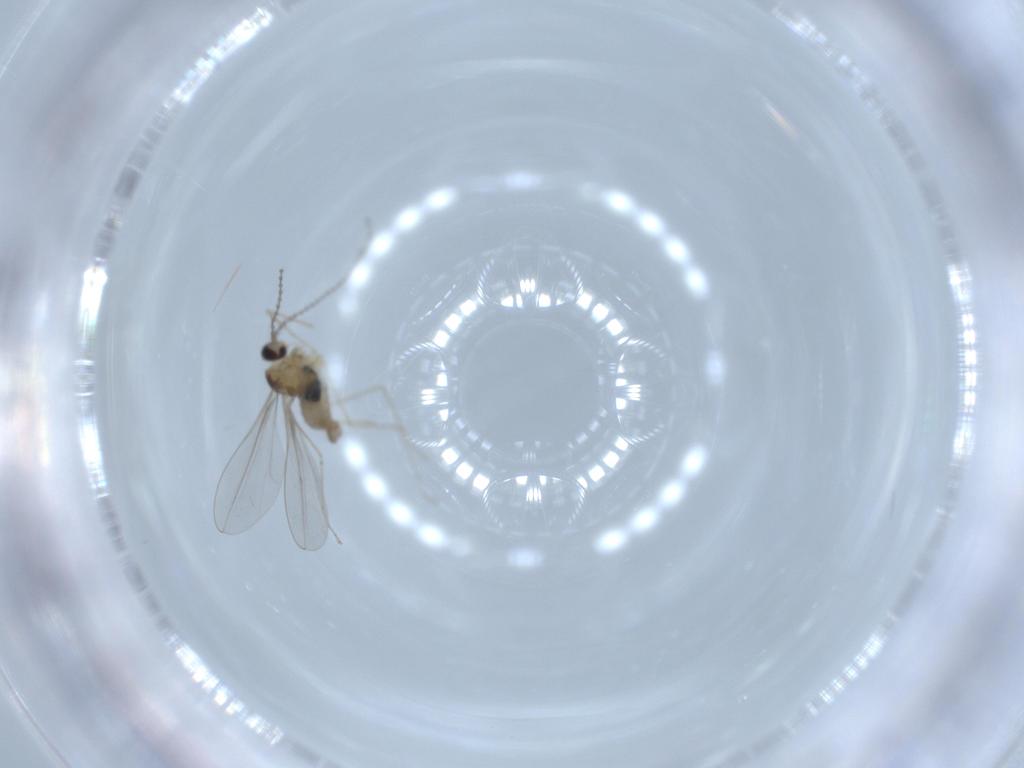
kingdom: Animalia
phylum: Arthropoda
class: Insecta
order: Diptera
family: Cecidomyiidae
